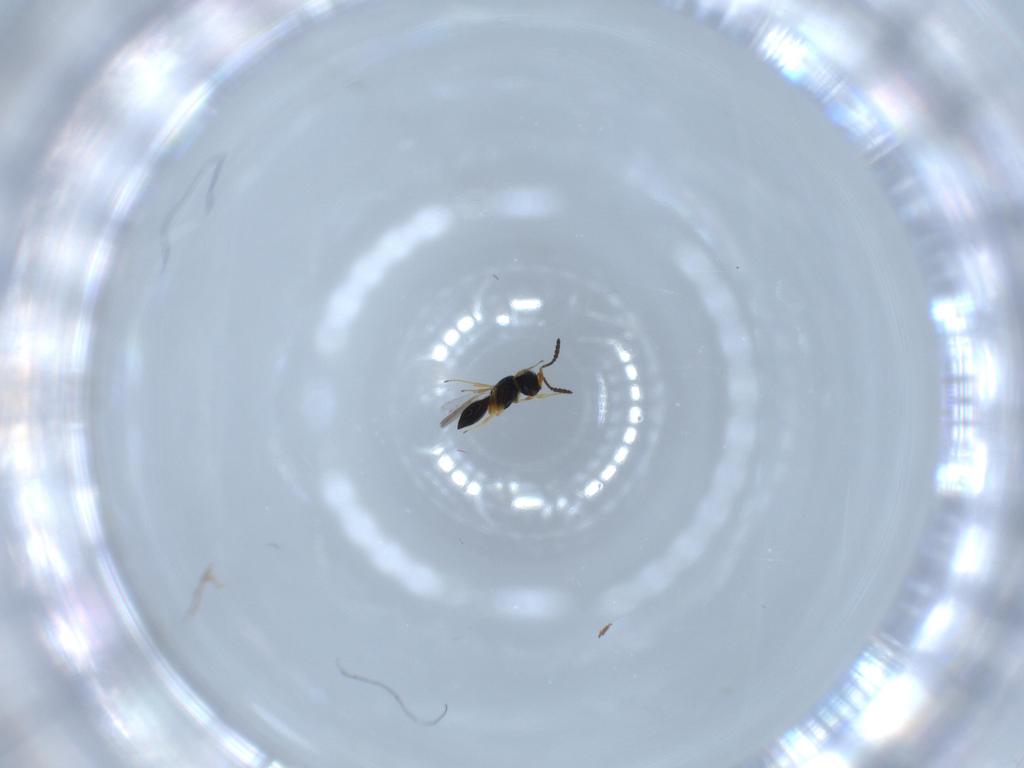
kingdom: Animalia
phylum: Arthropoda
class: Insecta
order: Hymenoptera
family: Scelionidae
